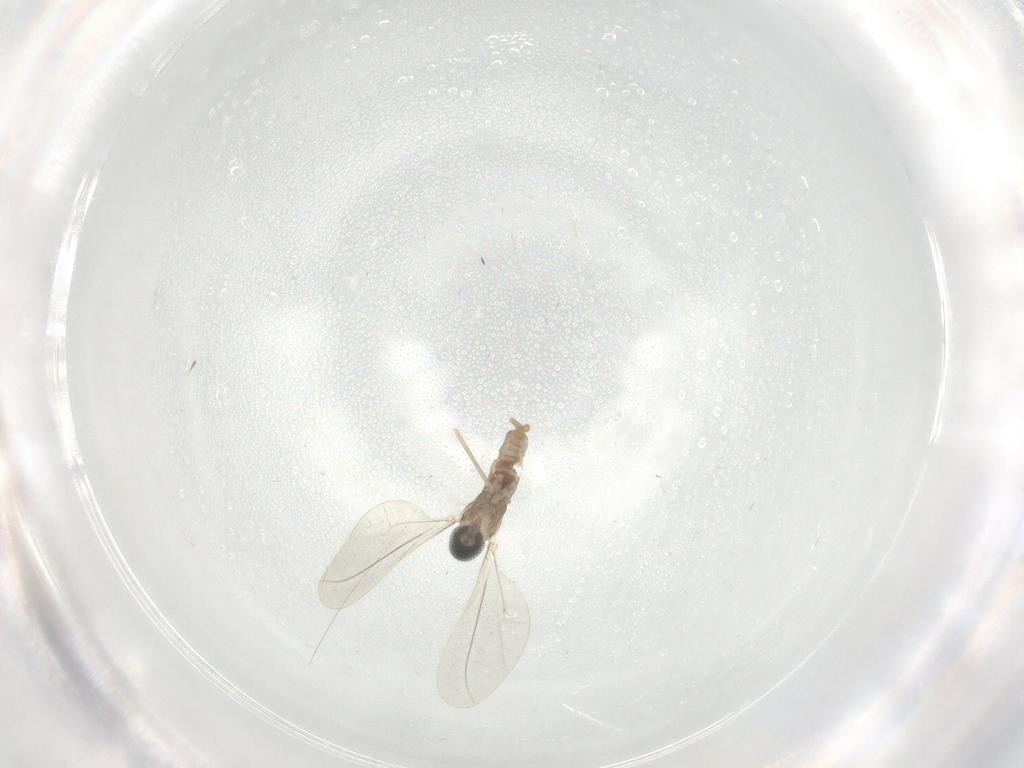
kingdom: Animalia
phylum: Arthropoda
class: Insecta
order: Diptera
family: Cecidomyiidae
